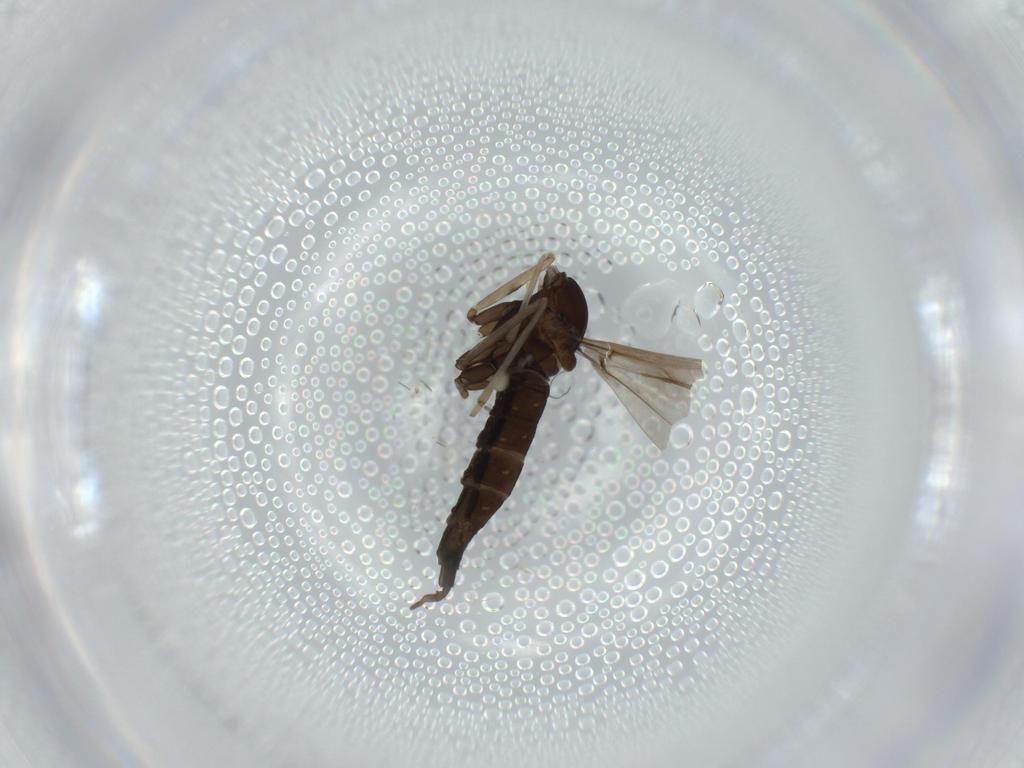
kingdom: Animalia
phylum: Arthropoda
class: Insecta
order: Diptera
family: Cecidomyiidae
